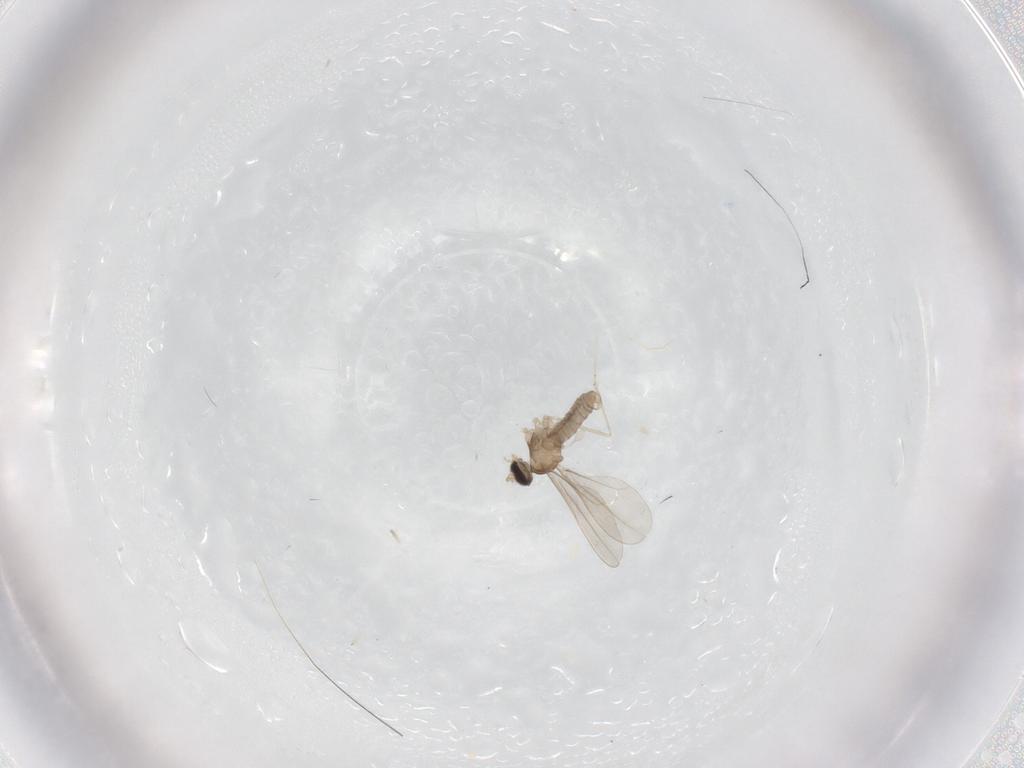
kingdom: Animalia
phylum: Arthropoda
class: Insecta
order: Diptera
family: Cecidomyiidae
